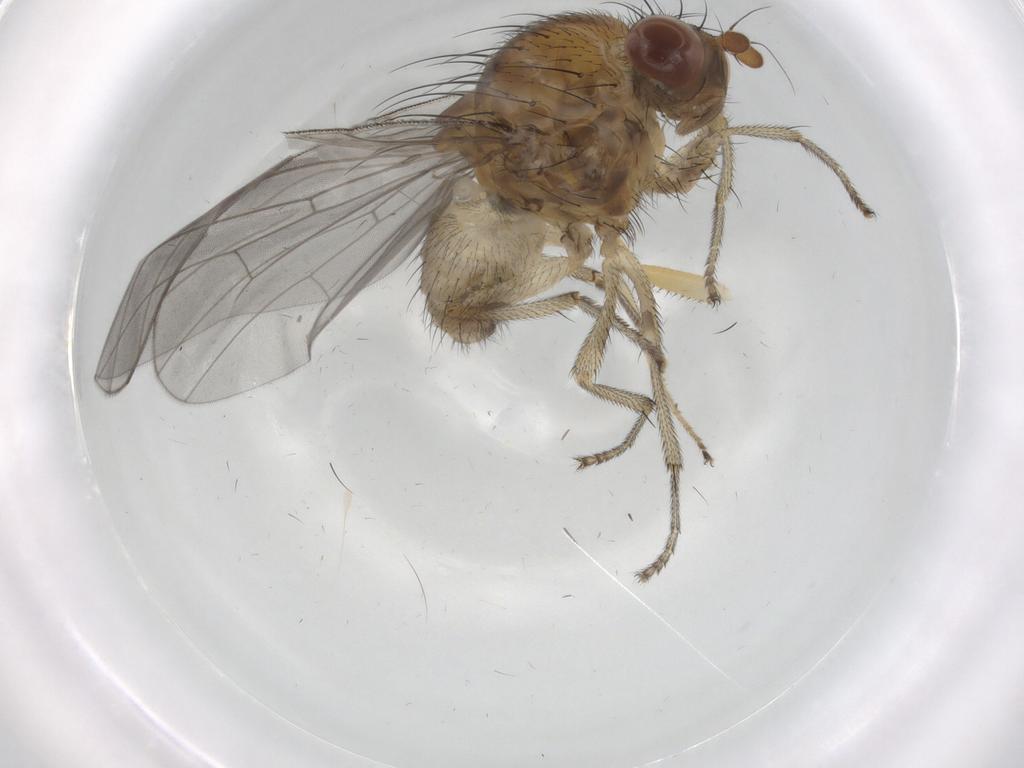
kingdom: Animalia
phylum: Arthropoda
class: Insecta
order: Diptera
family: Lauxaniidae
